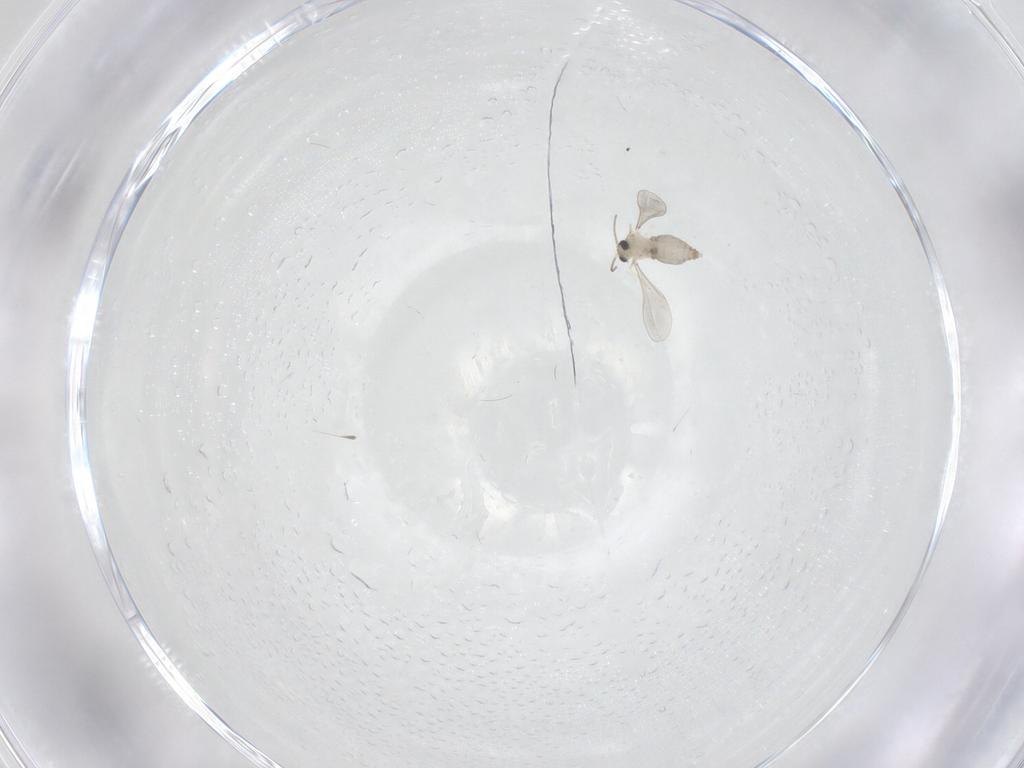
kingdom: Animalia
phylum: Arthropoda
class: Insecta
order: Diptera
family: Cecidomyiidae
